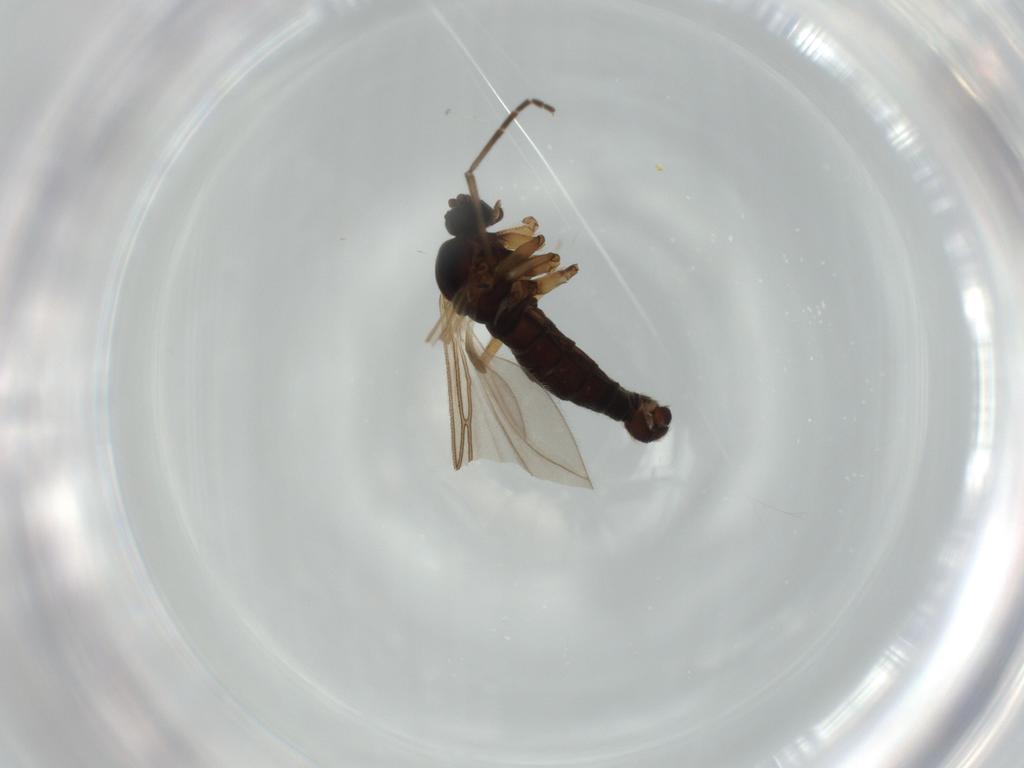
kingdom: Animalia
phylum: Arthropoda
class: Insecta
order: Diptera
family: Sciaridae
